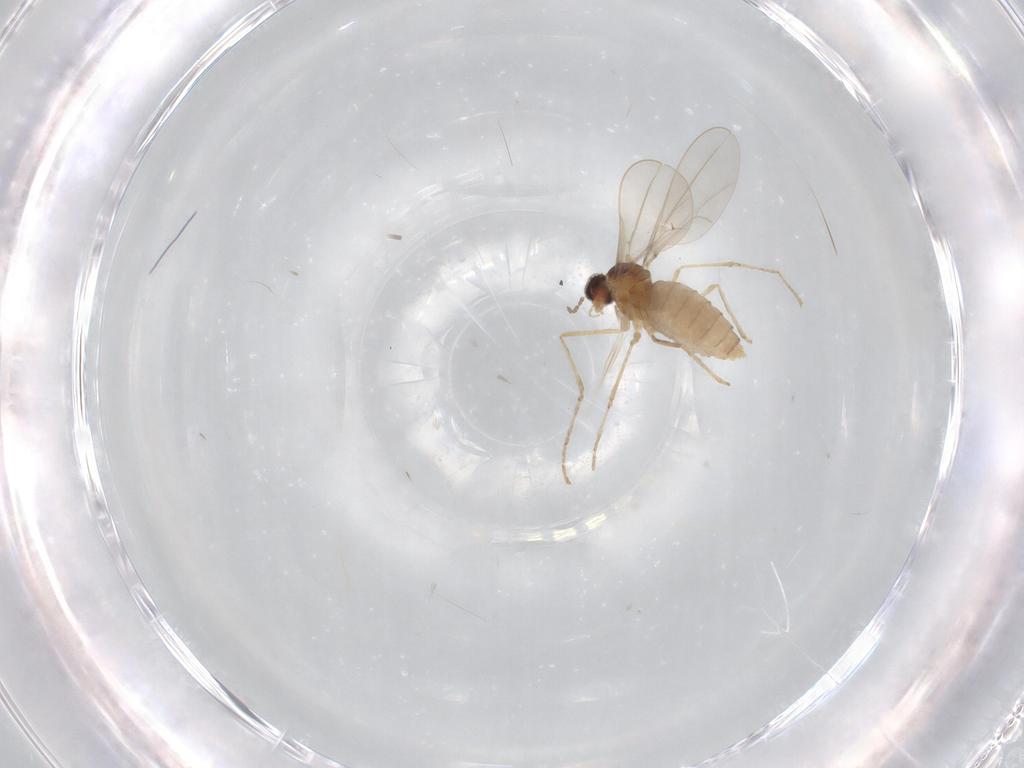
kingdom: Animalia
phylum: Arthropoda
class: Insecta
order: Diptera
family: Cecidomyiidae
